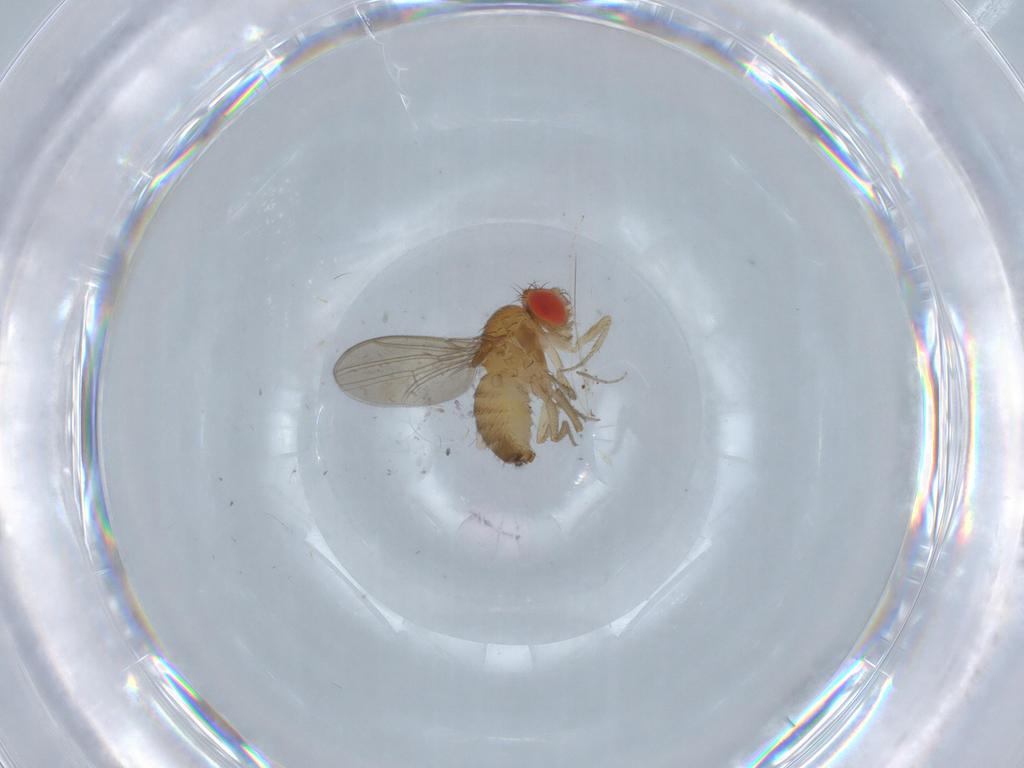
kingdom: Animalia
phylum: Arthropoda
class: Insecta
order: Diptera
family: Drosophilidae
